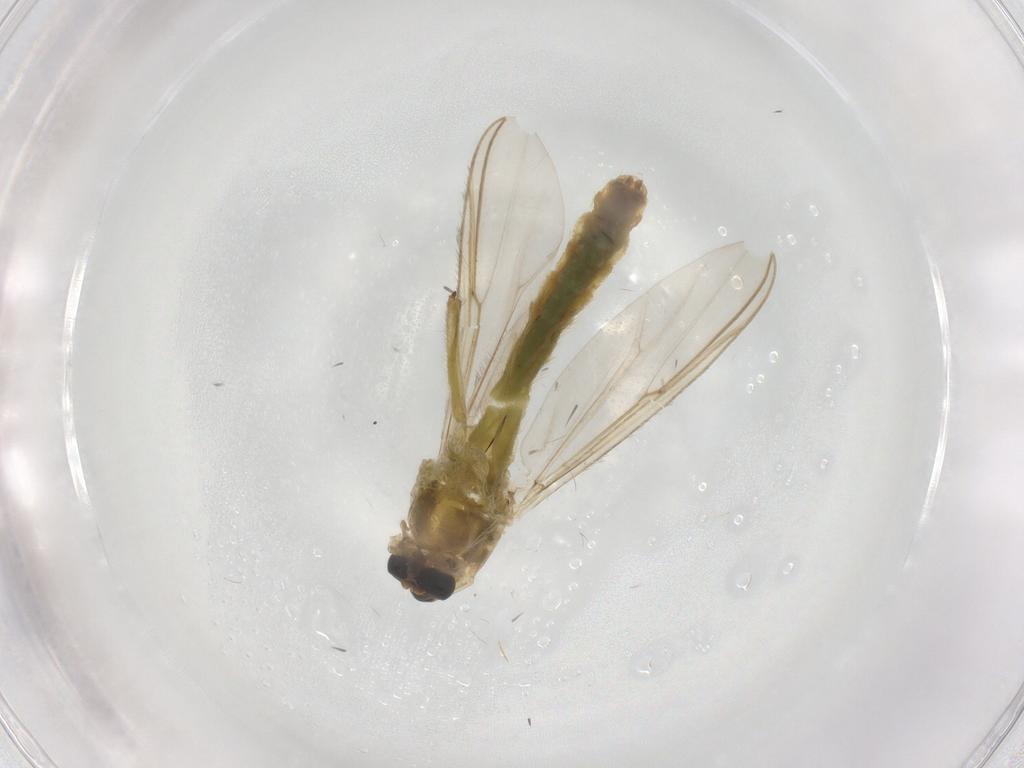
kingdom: Animalia
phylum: Arthropoda
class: Insecta
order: Diptera
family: Chironomidae
